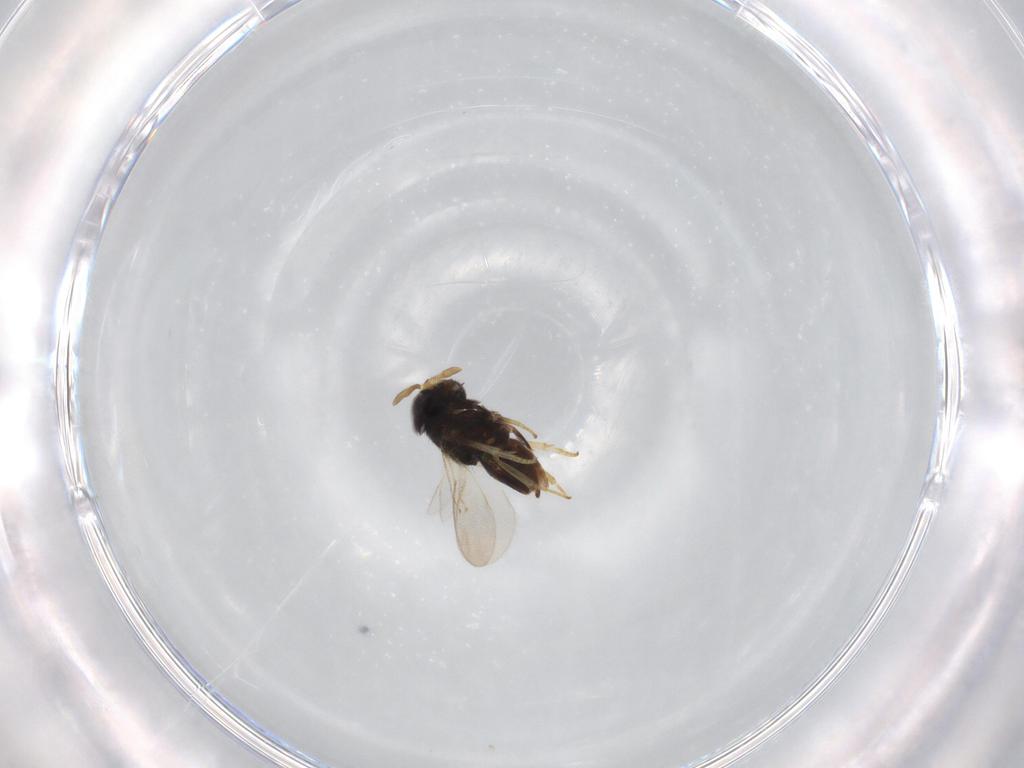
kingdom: Animalia
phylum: Arthropoda
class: Insecta
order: Hymenoptera
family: Encyrtidae
